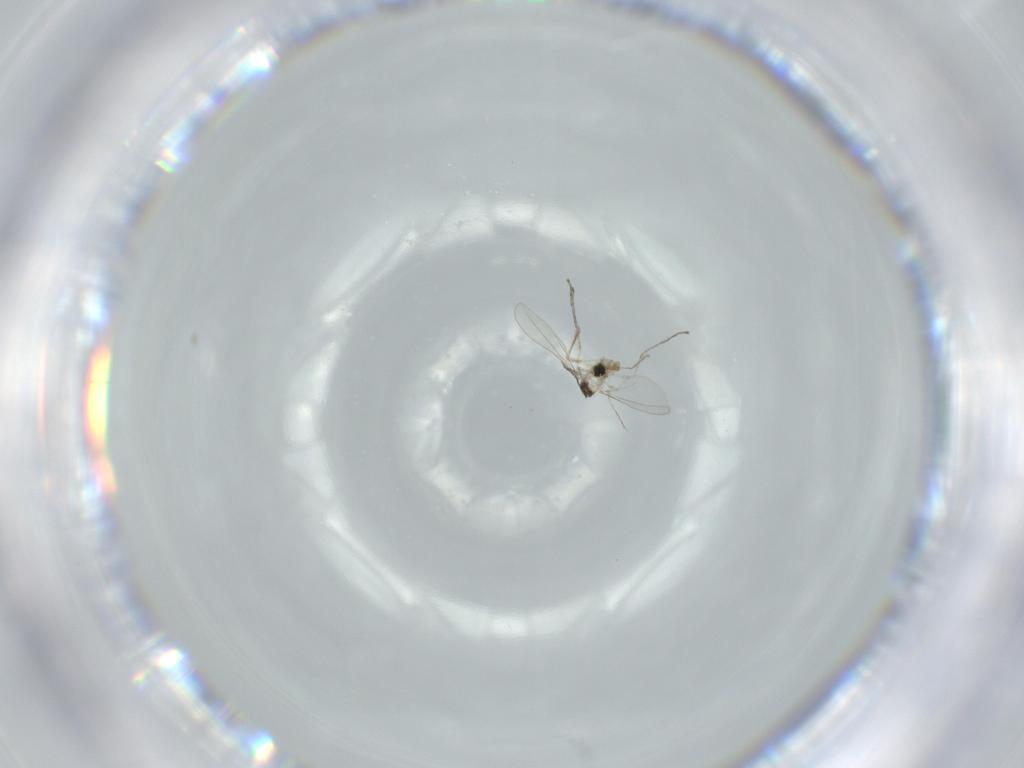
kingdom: Animalia
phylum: Arthropoda
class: Insecta
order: Diptera
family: Cecidomyiidae
